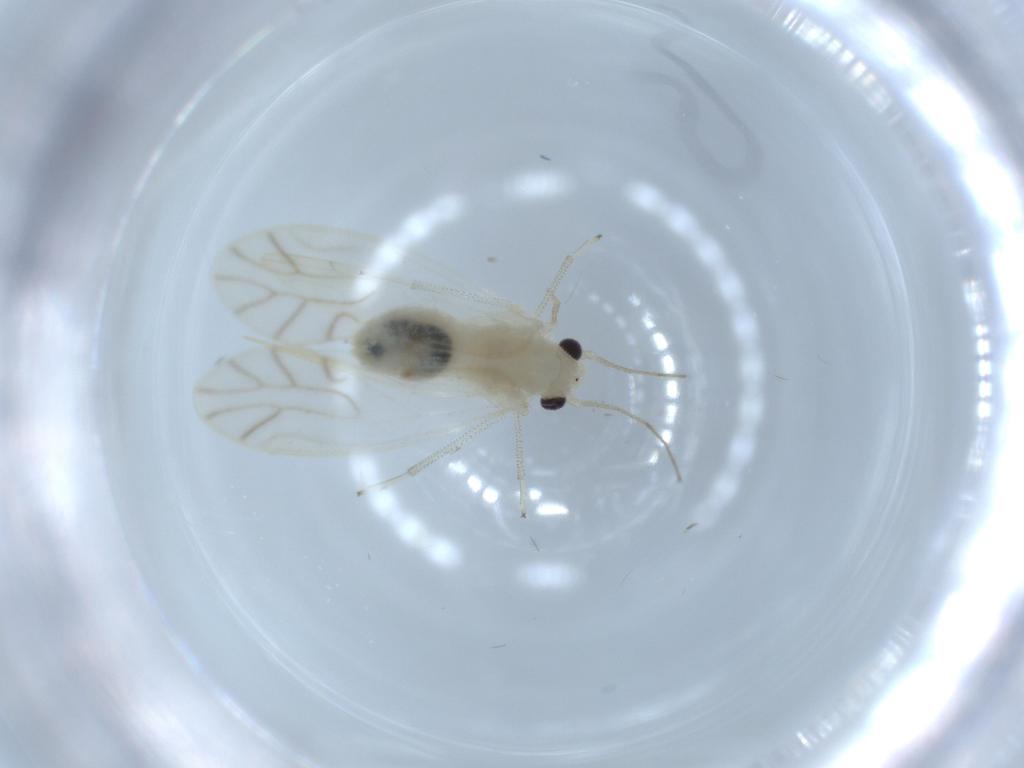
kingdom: Animalia
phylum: Arthropoda
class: Insecta
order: Psocodea
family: Caeciliusidae
